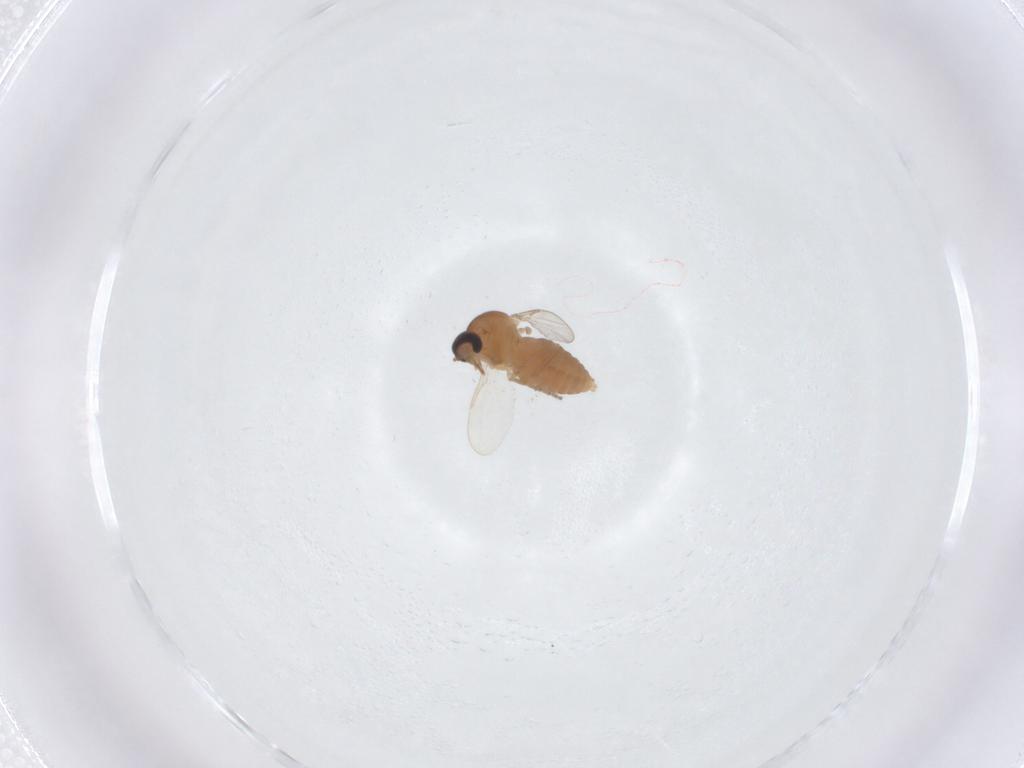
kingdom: Animalia
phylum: Arthropoda
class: Insecta
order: Diptera
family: Ceratopogonidae
